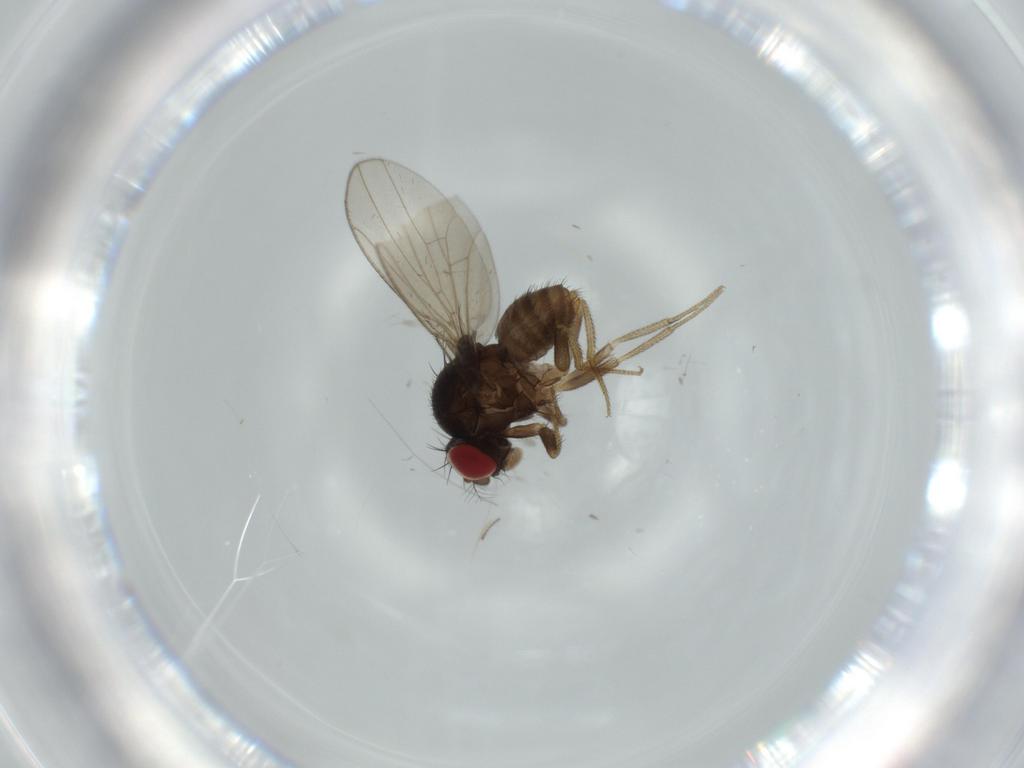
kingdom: Animalia
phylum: Arthropoda
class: Insecta
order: Diptera
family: Drosophilidae
